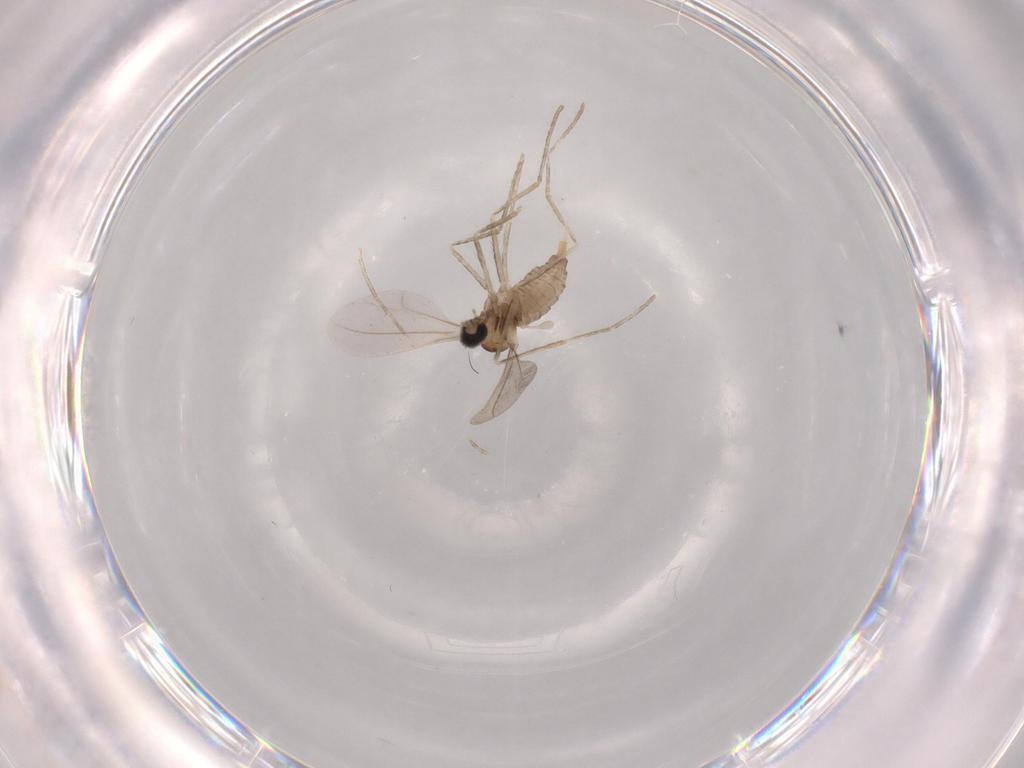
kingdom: Animalia
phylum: Arthropoda
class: Insecta
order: Diptera
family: Cecidomyiidae
